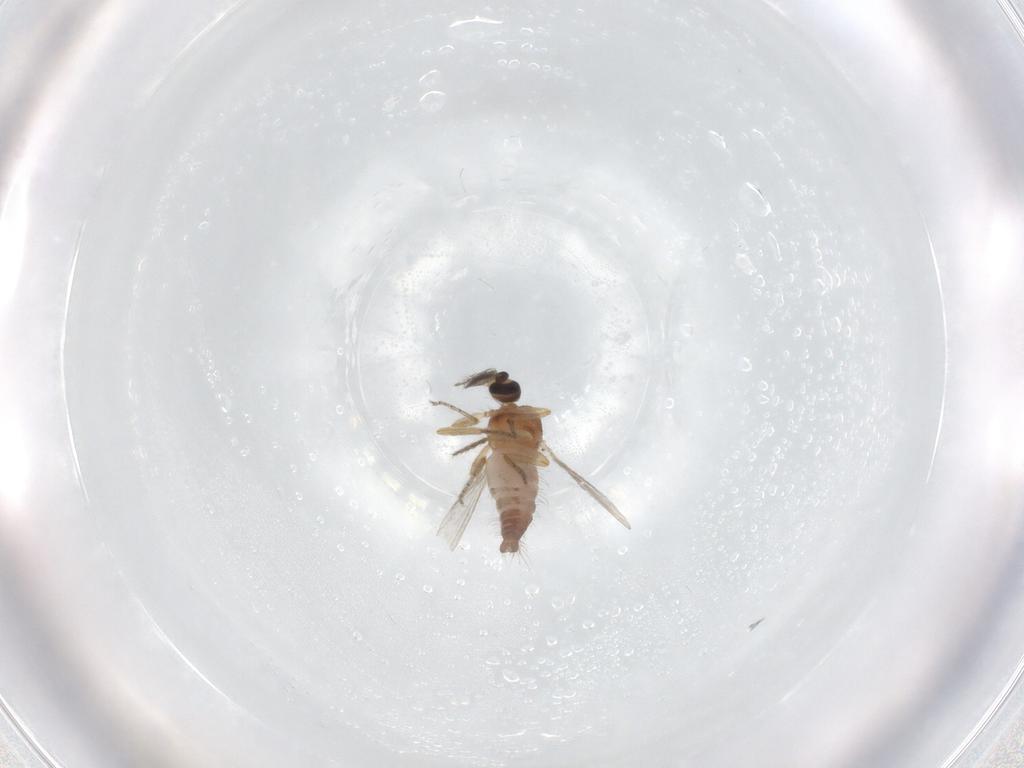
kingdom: Animalia
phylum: Arthropoda
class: Insecta
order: Diptera
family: Ceratopogonidae
